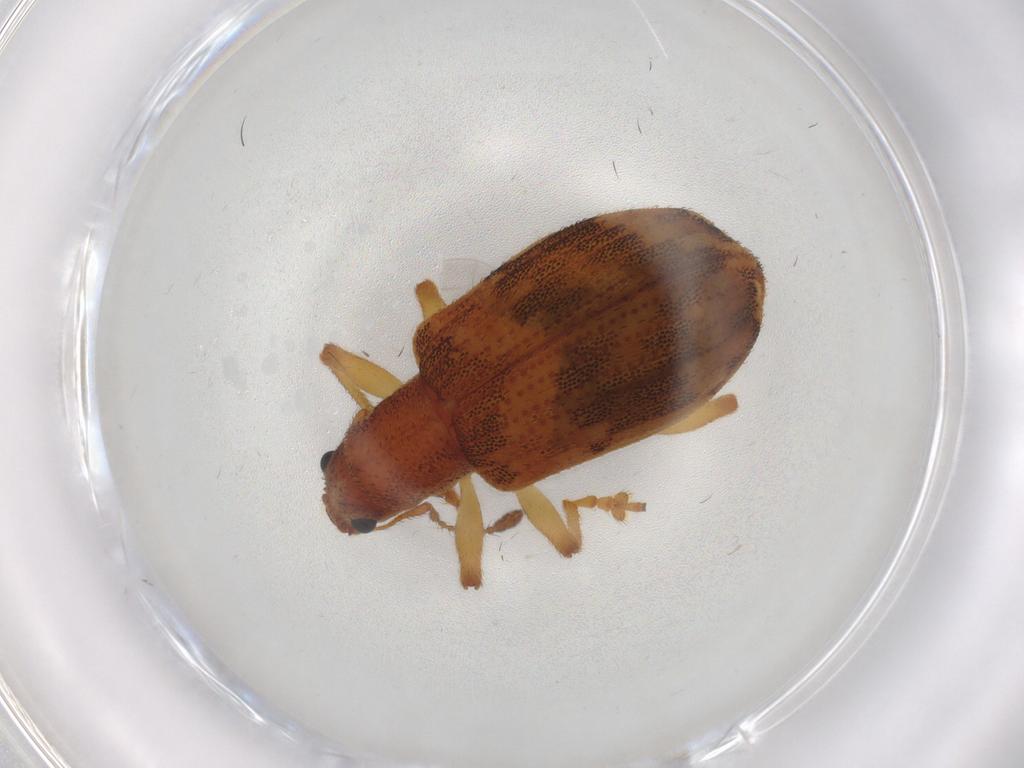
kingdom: Animalia
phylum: Arthropoda
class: Insecta
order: Coleoptera
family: Curculionidae
